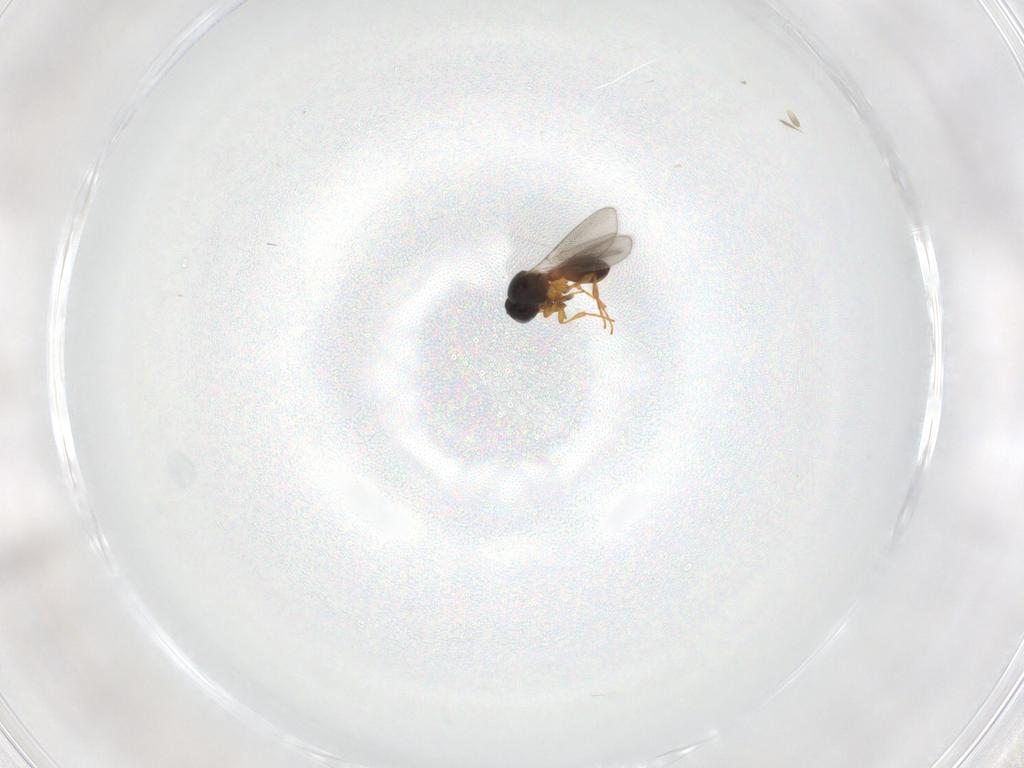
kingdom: Animalia
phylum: Arthropoda
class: Insecta
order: Hymenoptera
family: Platygastridae
